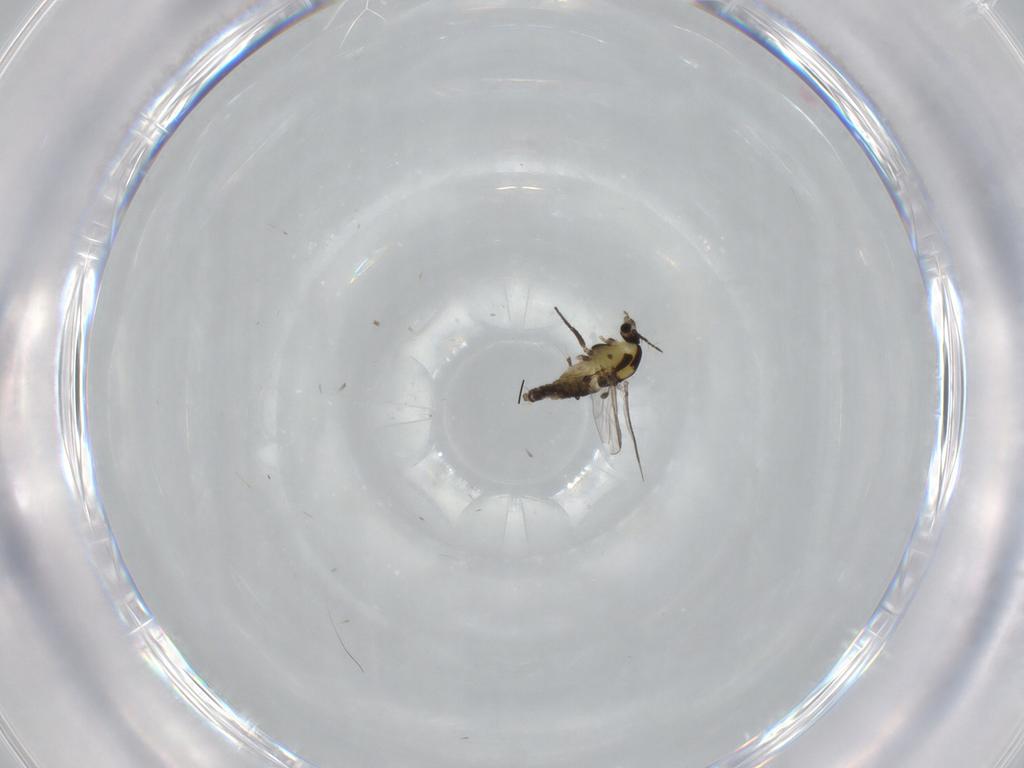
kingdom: Animalia
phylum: Arthropoda
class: Insecta
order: Diptera
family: Chironomidae
